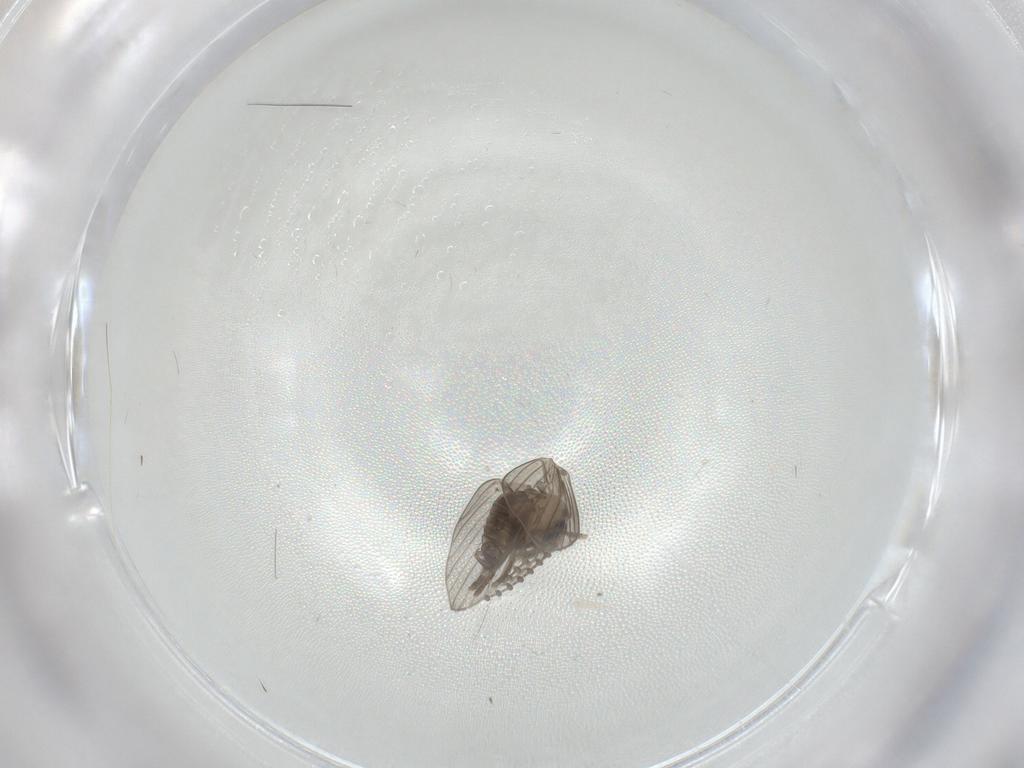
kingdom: Animalia
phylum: Arthropoda
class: Insecta
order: Diptera
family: Psychodidae
